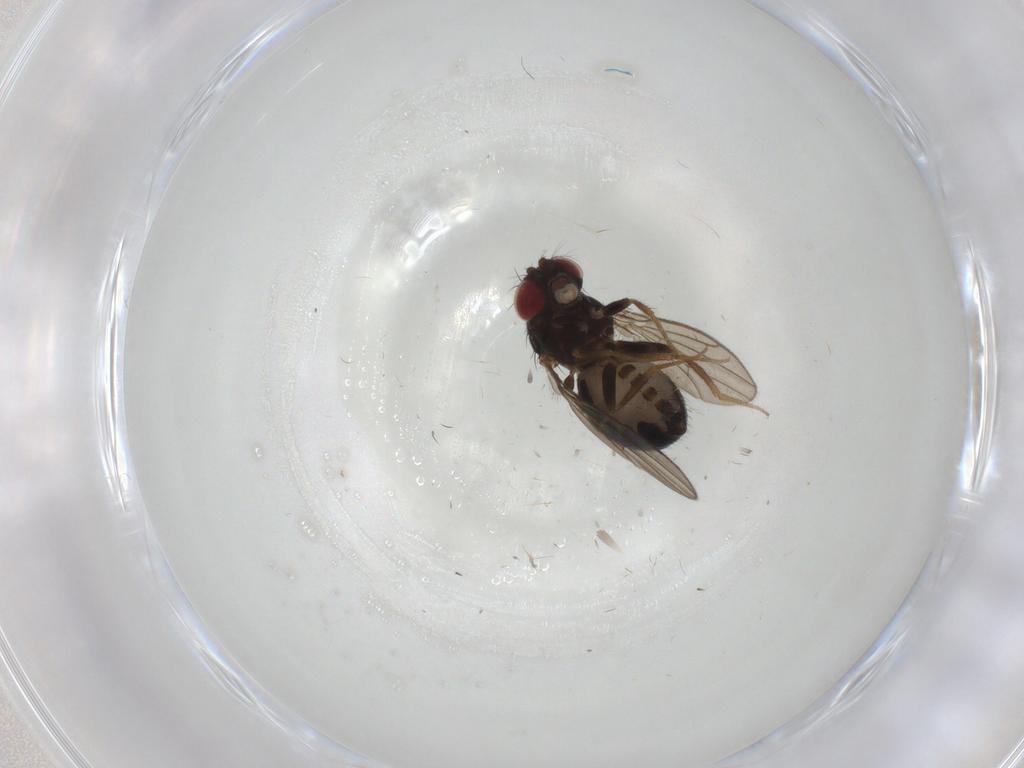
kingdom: Animalia
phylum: Arthropoda
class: Insecta
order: Diptera
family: Drosophilidae
